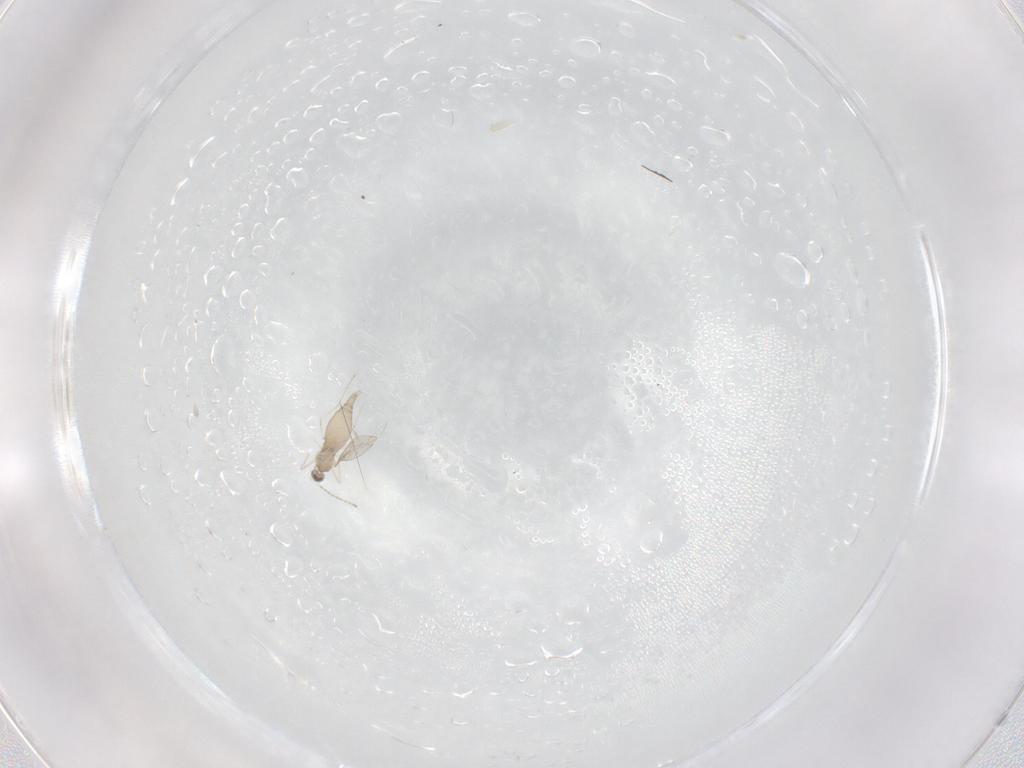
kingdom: Animalia
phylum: Arthropoda
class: Insecta
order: Diptera
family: Cecidomyiidae
